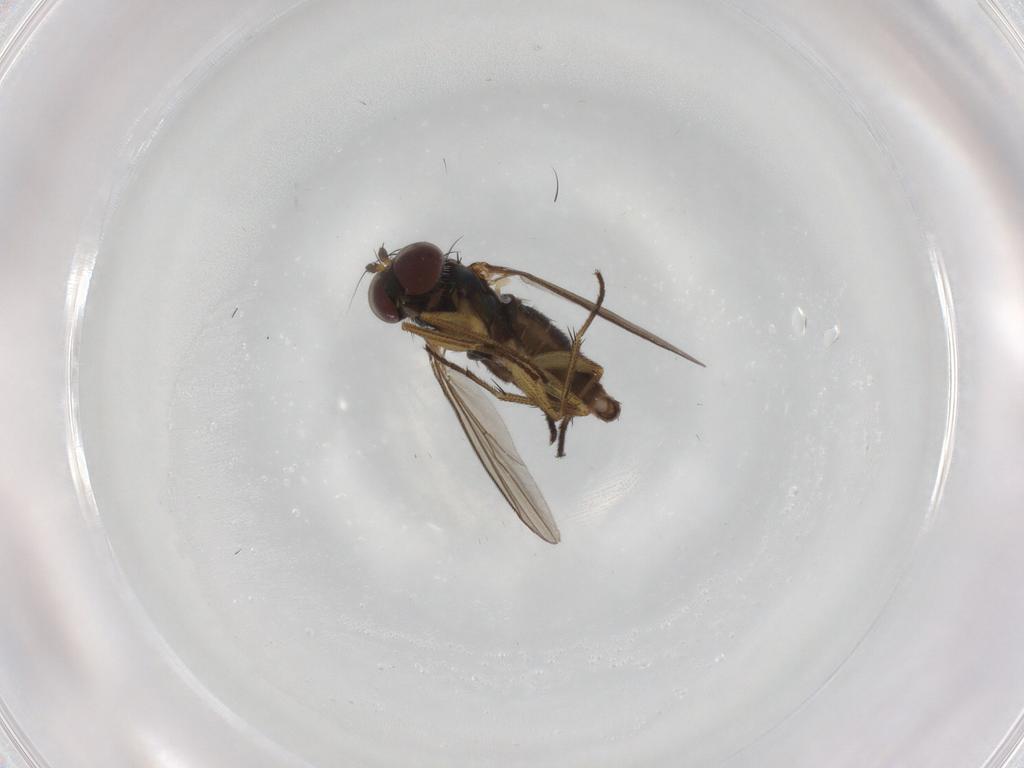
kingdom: Animalia
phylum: Arthropoda
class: Insecta
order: Diptera
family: Dolichopodidae
